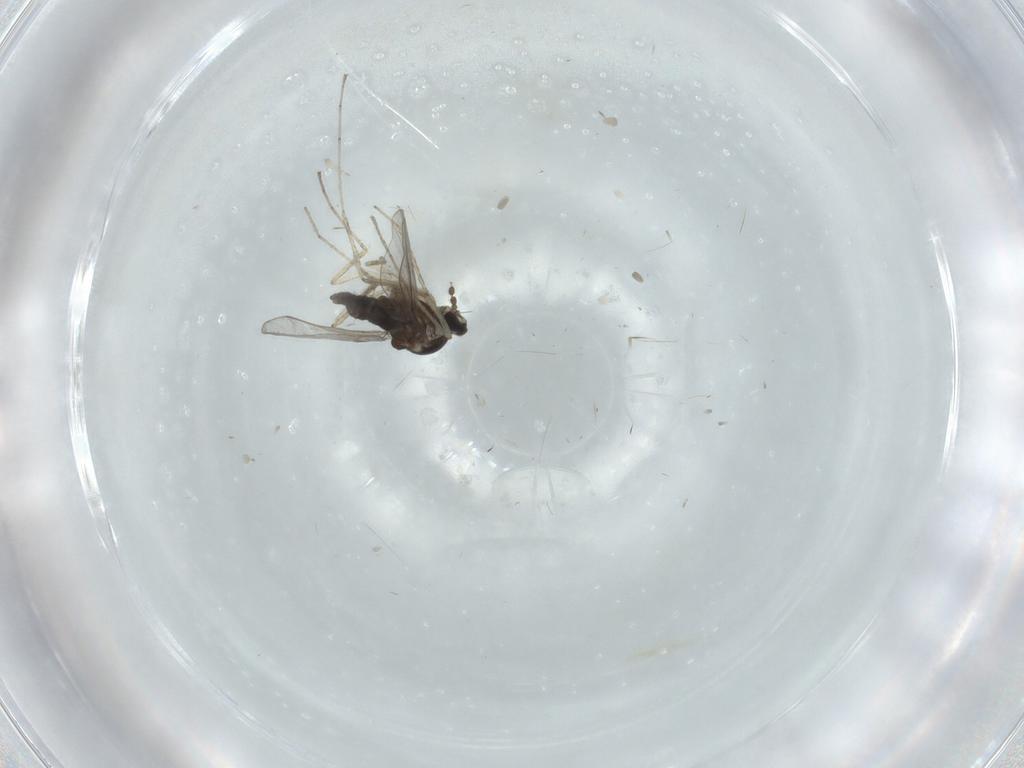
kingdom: Animalia
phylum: Arthropoda
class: Insecta
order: Diptera
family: Cecidomyiidae
